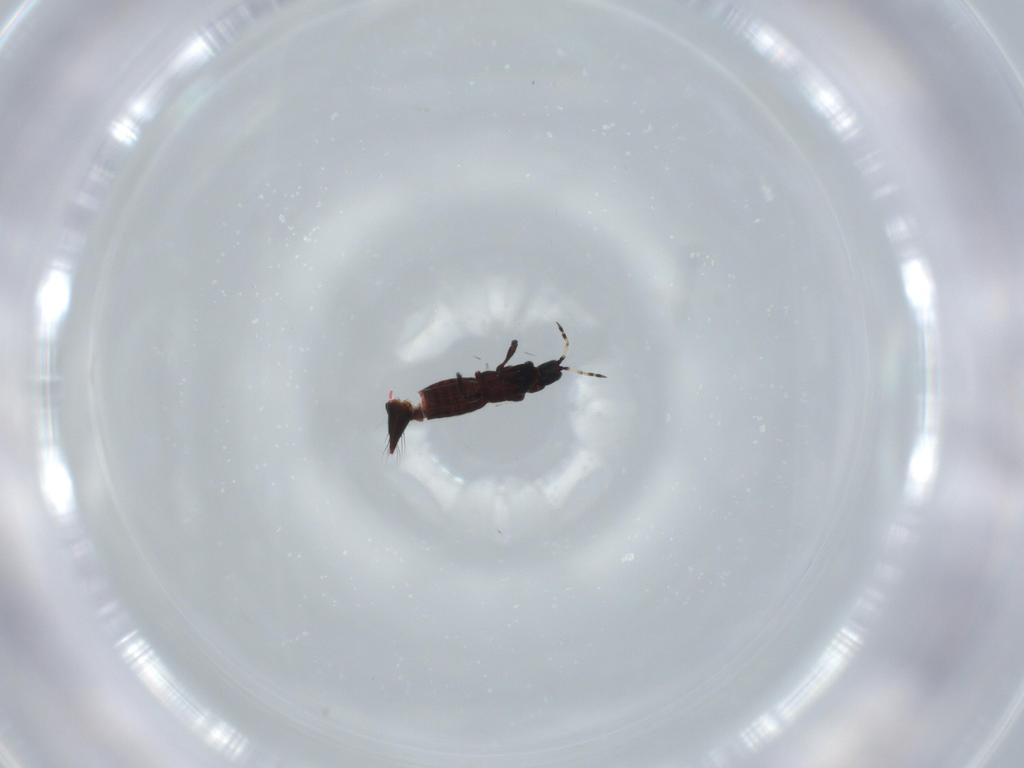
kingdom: Animalia
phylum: Arthropoda
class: Insecta
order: Thysanoptera
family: Aeolothripidae
